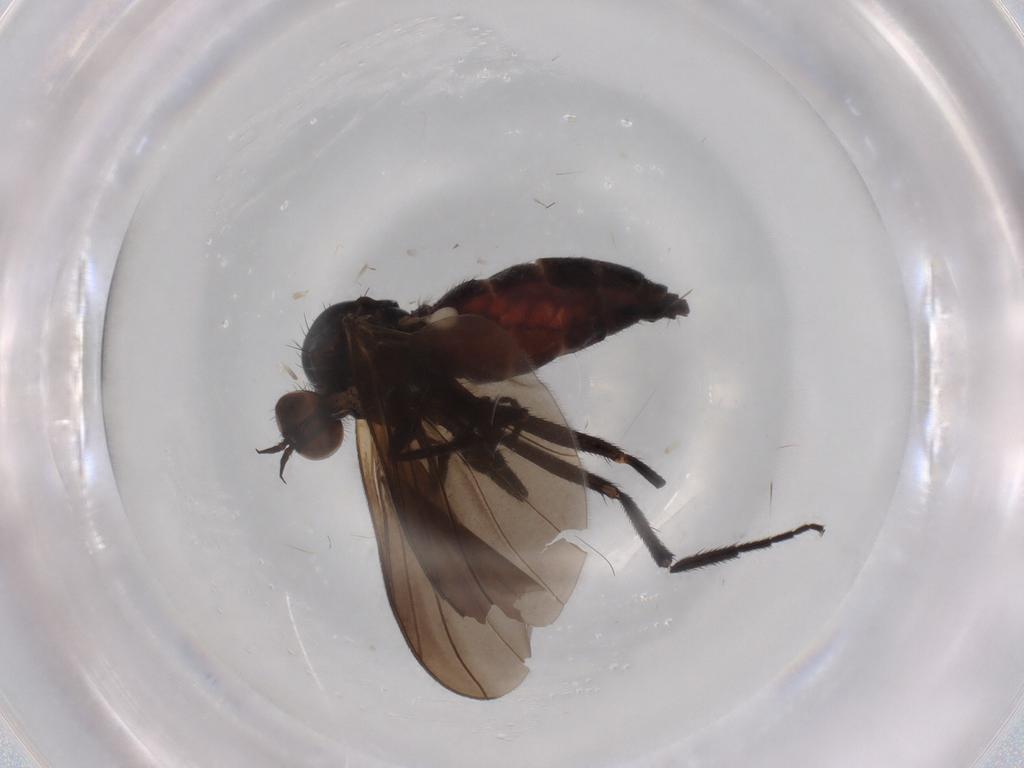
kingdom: Animalia
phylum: Arthropoda
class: Insecta
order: Diptera
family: Empididae
